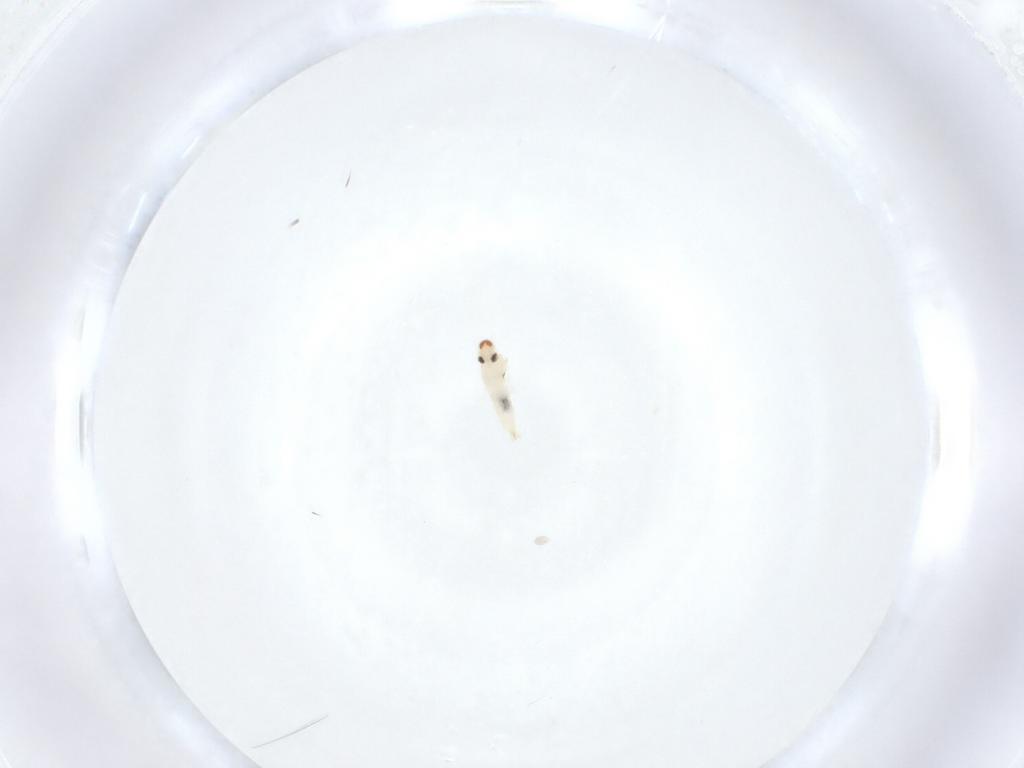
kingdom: Animalia
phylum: Arthropoda
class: Insecta
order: Diptera
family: Cecidomyiidae
